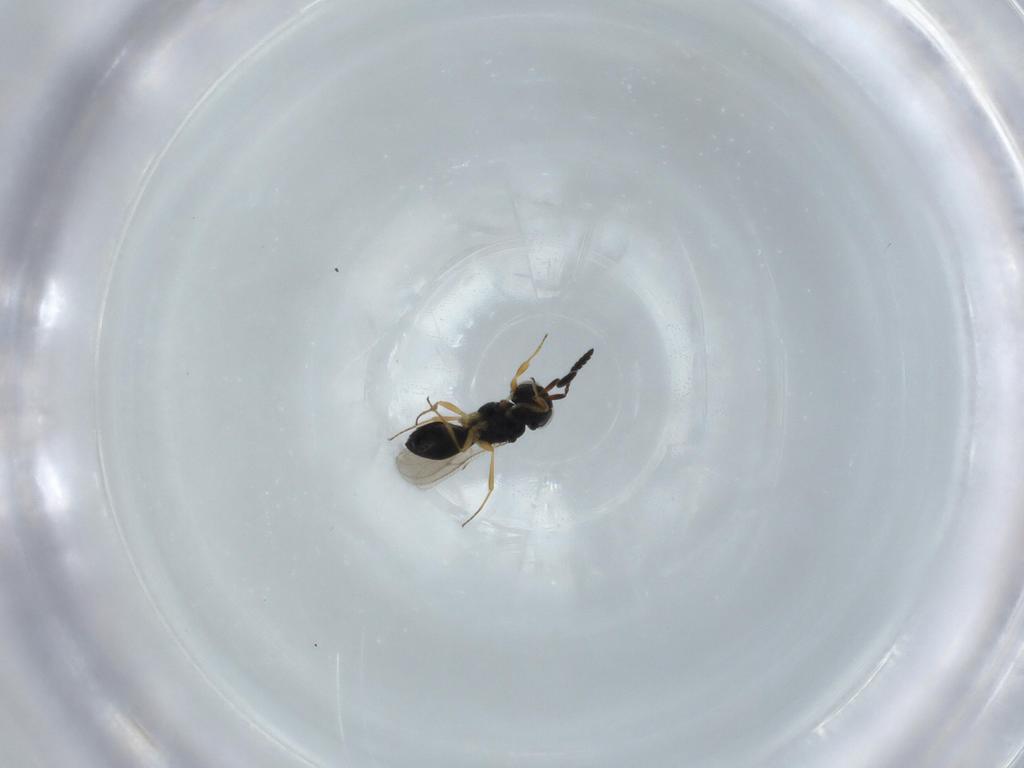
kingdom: Animalia
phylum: Arthropoda
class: Insecta
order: Hymenoptera
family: Scelionidae
